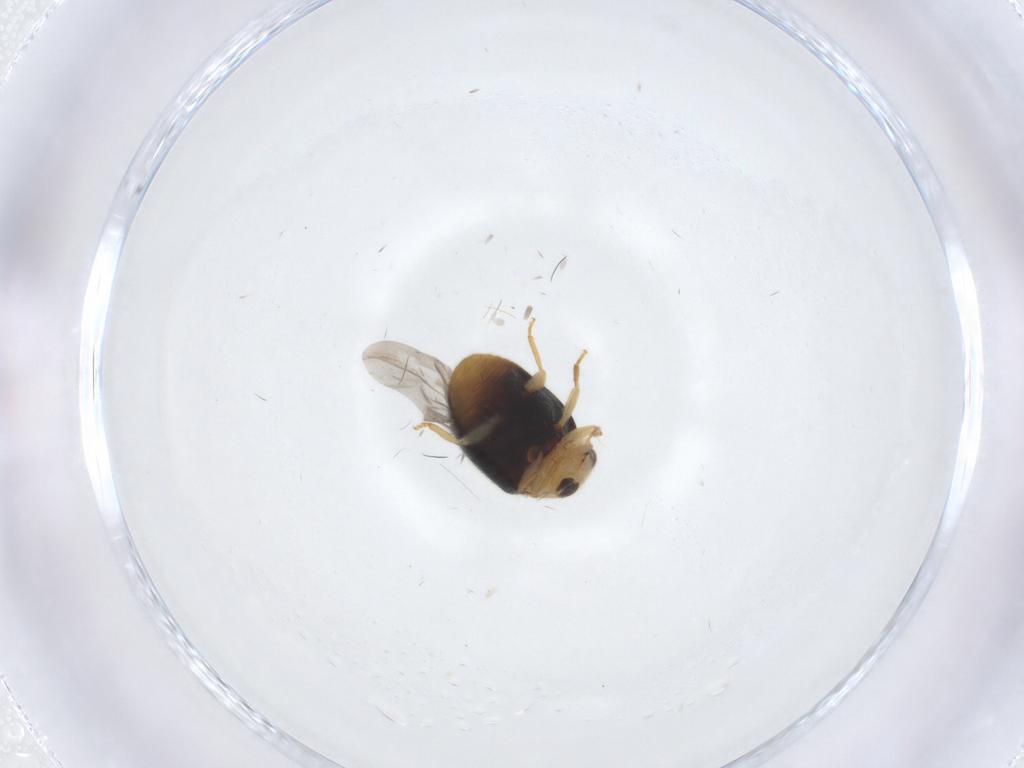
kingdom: Animalia
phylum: Arthropoda
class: Insecta
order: Coleoptera
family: Coccinellidae
